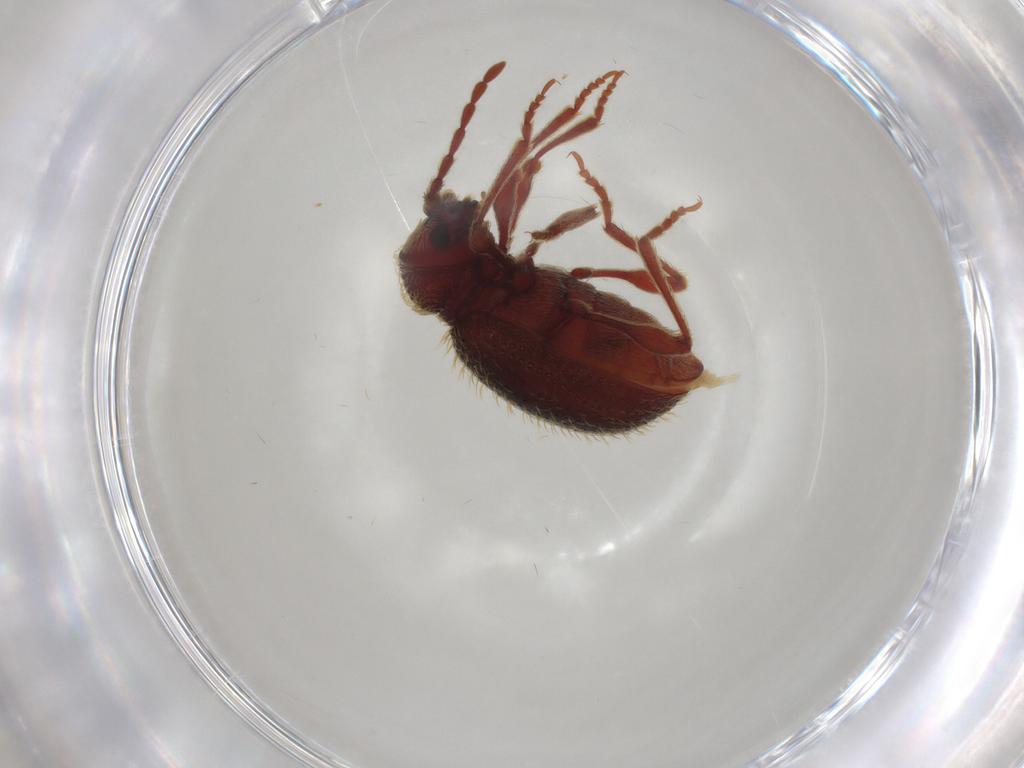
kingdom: Animalia
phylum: Arthropoda
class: Insecta
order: Coleoptera
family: Ptinidae
